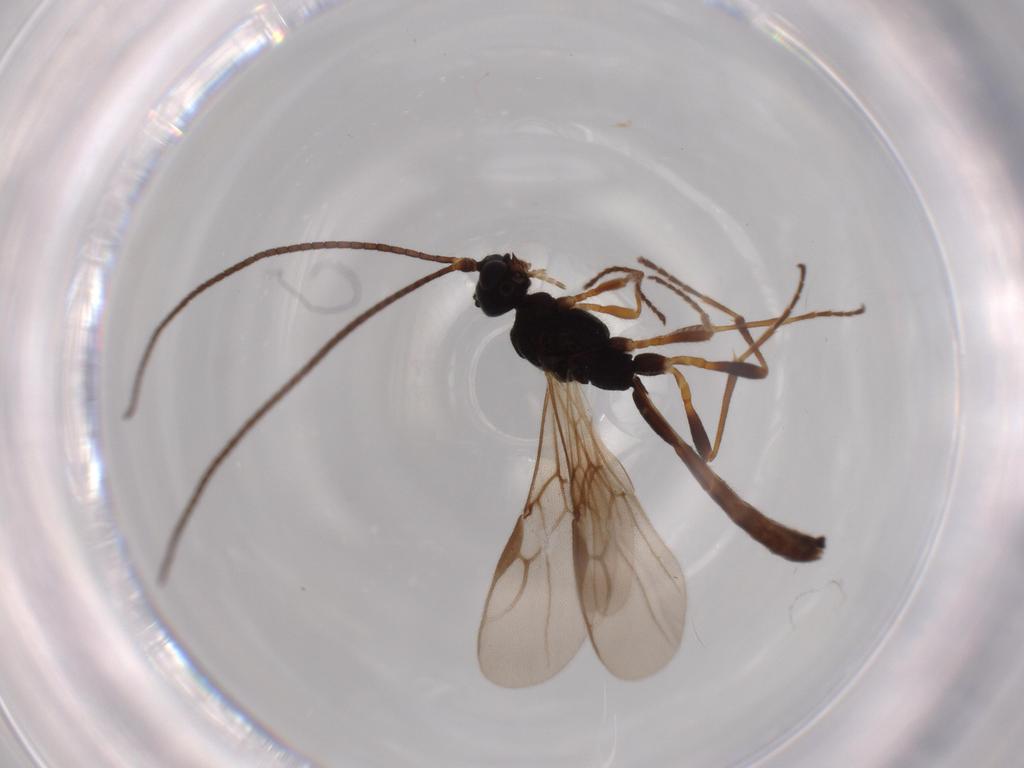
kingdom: Animalia
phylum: Arthropoda
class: Insecta
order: Hymenoptera
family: Braconidae
